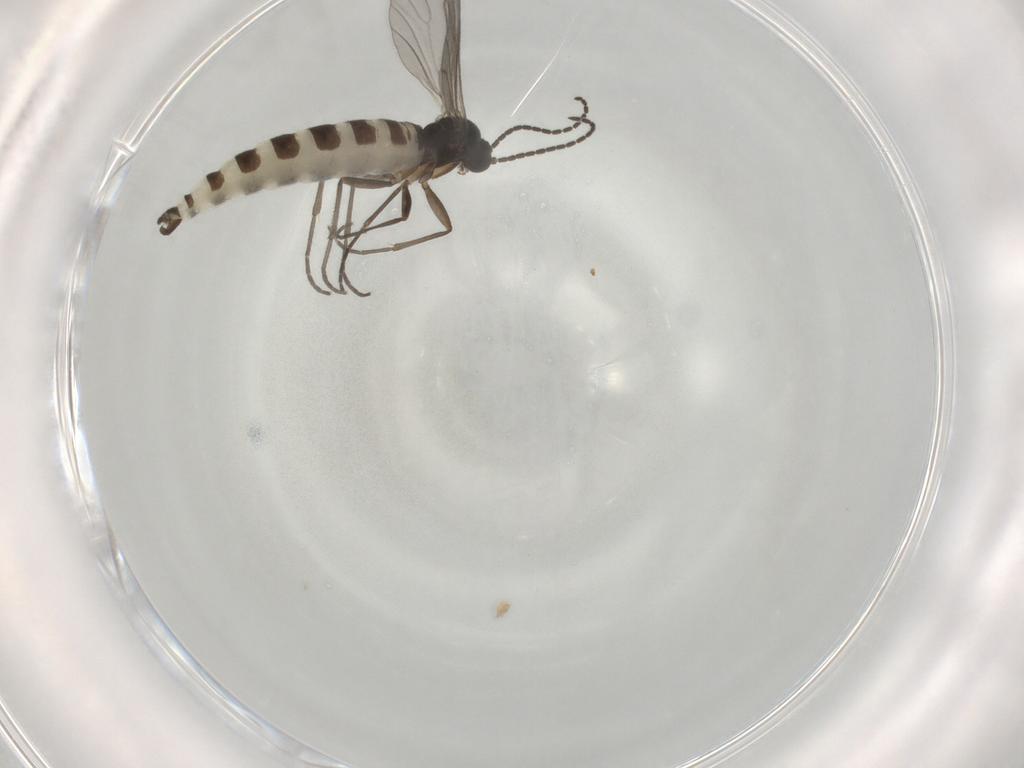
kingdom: Animalia
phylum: Arthropoda
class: Insecta
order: Diptera
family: Sciaridae
